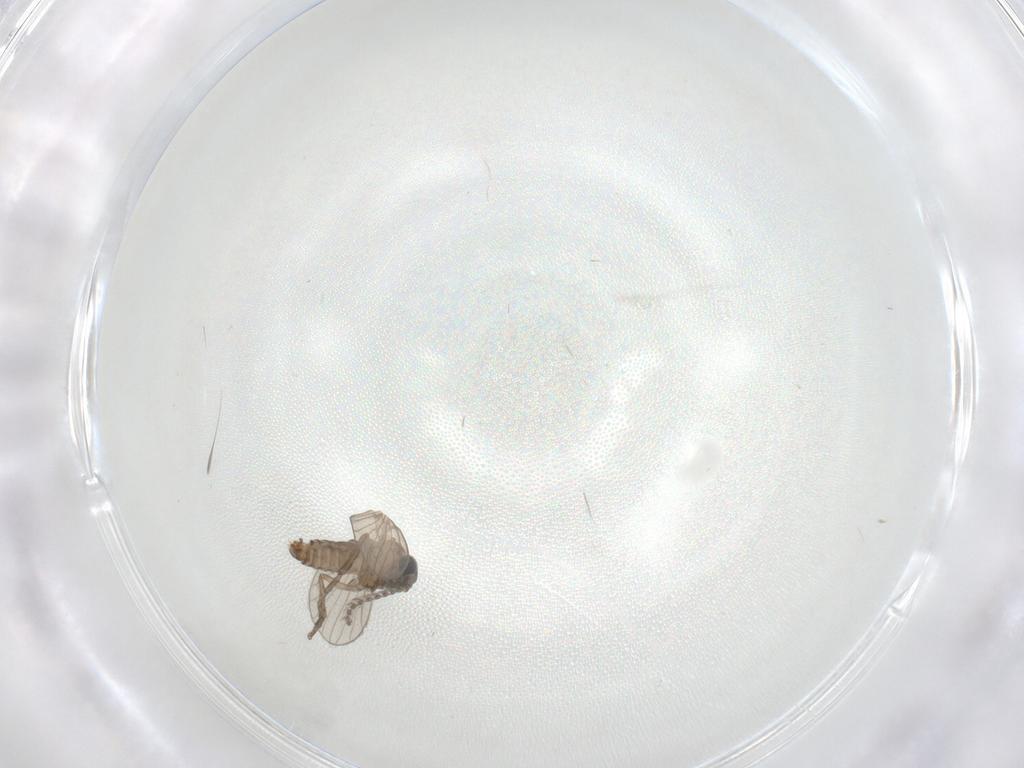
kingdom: Animalia
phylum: Arthropoda
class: Insecta
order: Diptera
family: Psychodidae
